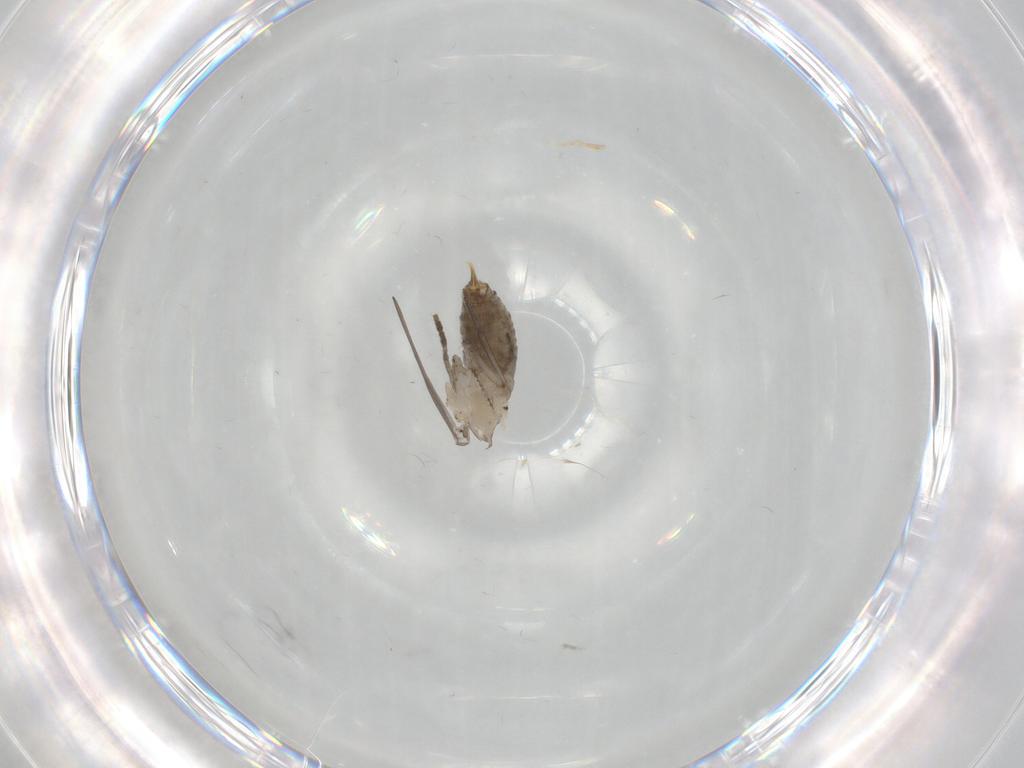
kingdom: Animalia
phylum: Arthropoda
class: Insecta
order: Diptera
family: Psychodidae
